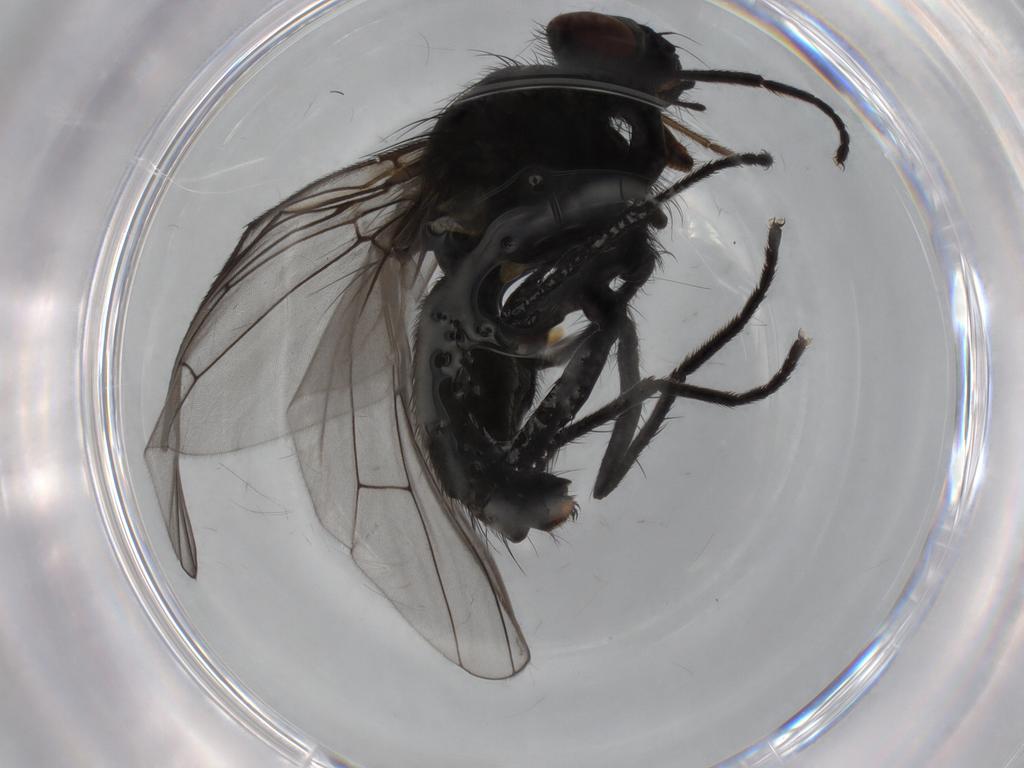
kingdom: Animalia
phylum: Arthropoda
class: Insecta
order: Diptera
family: Muscidae
